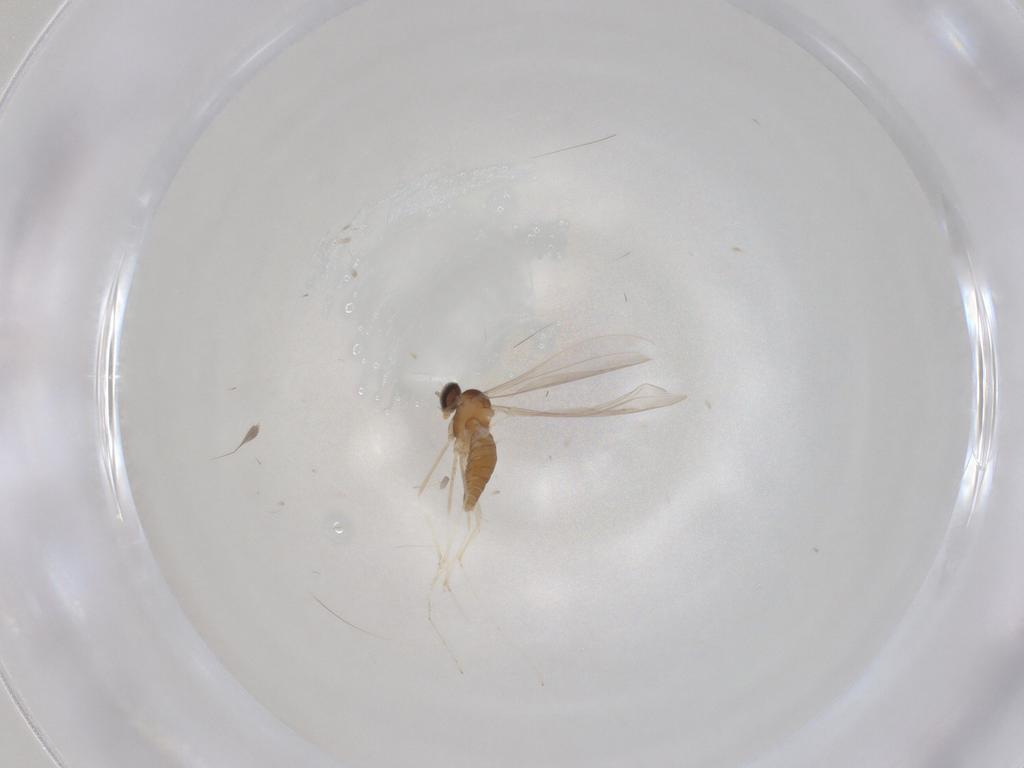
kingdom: Animalia
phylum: Arthropoda
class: Insecta
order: Diptera
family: Cecidomyiidae
